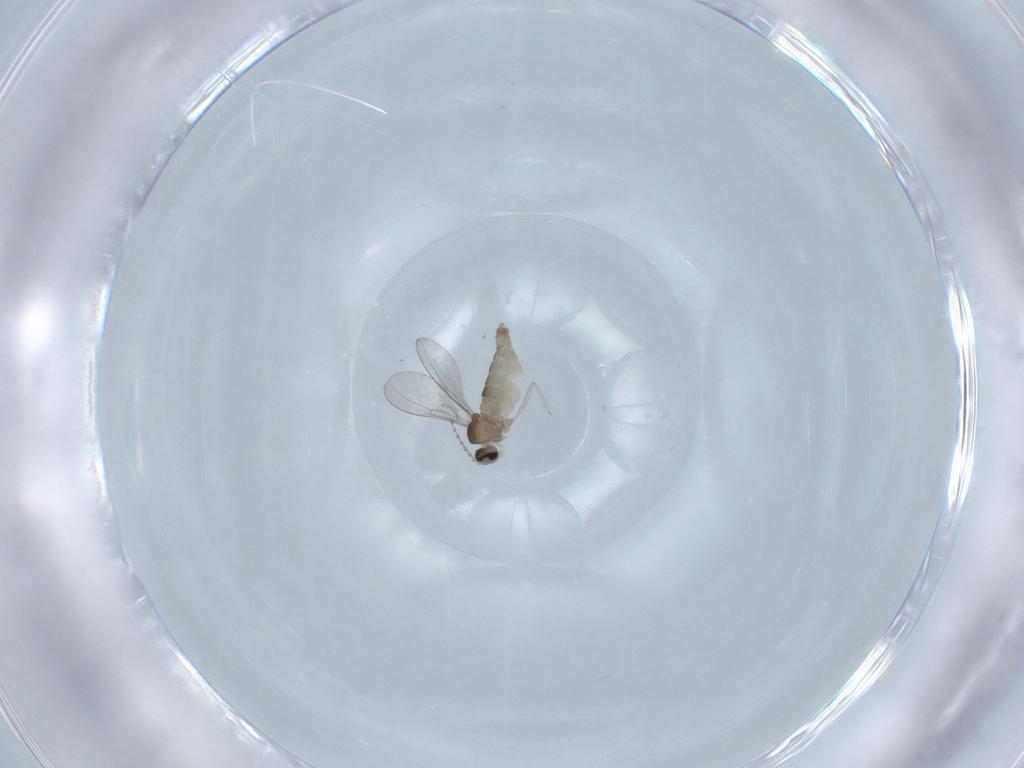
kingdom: Animalia
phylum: Arthropoda
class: Insecta
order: Diptera
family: Cecidomyiidae
